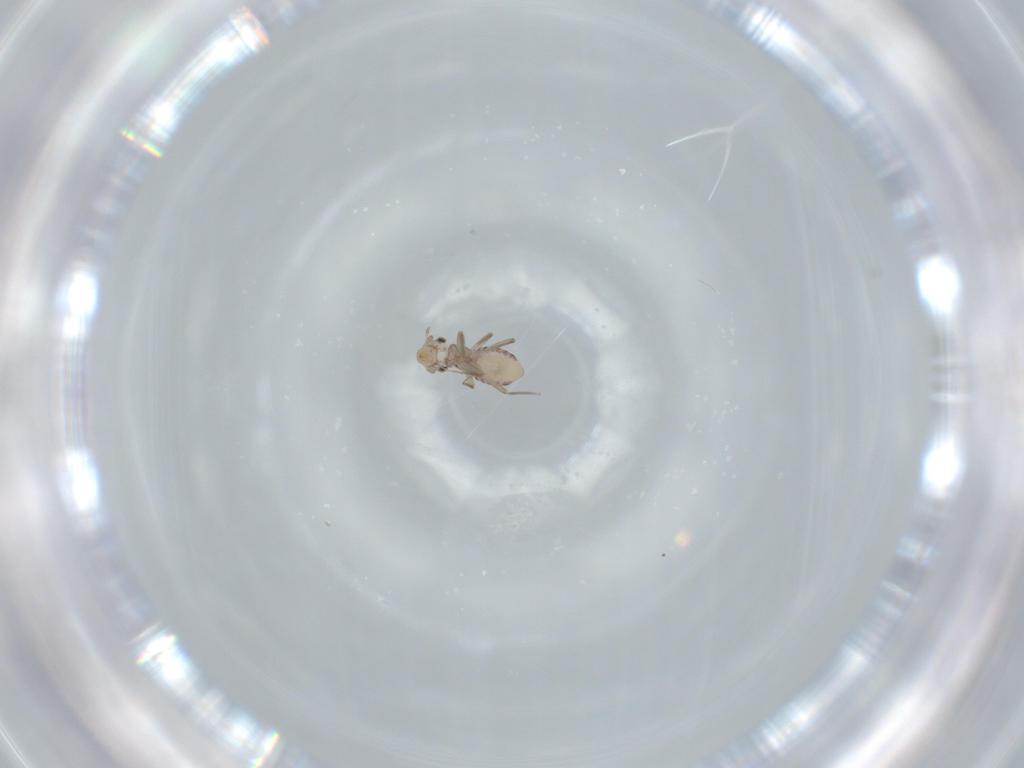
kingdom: Animalia
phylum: Arthropoda
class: Insecta
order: Psocodea
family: Lepidopsocidae
